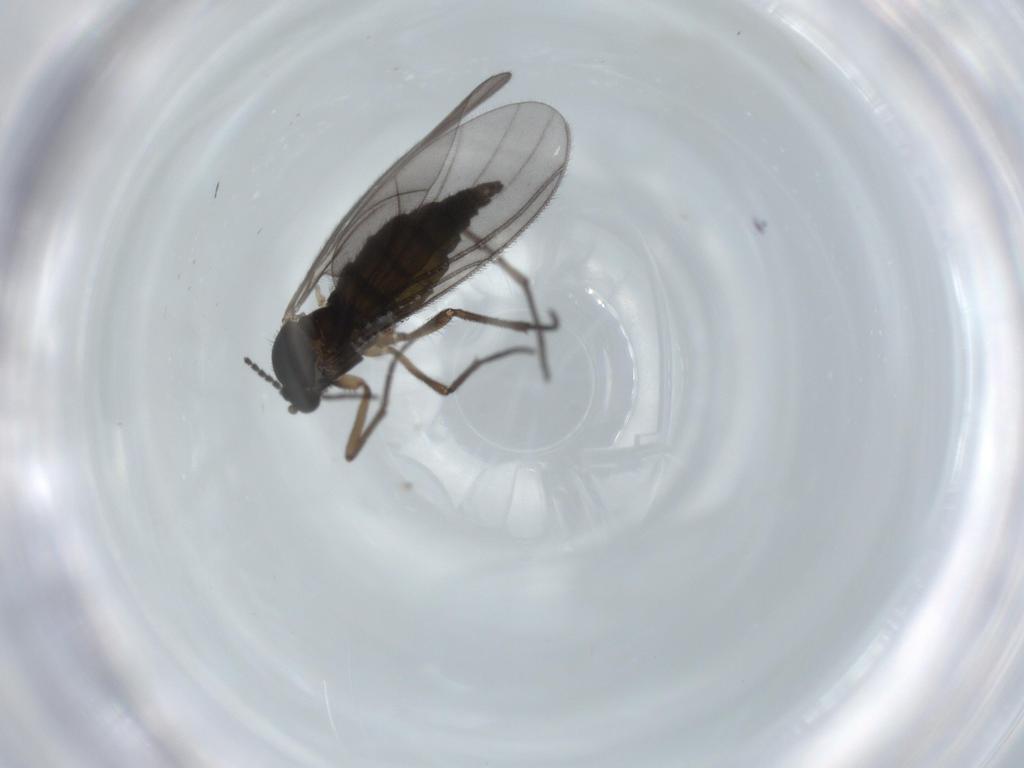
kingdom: Animalia
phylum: Arthropoda
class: Insecta
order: Diptera
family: Sciaridae
